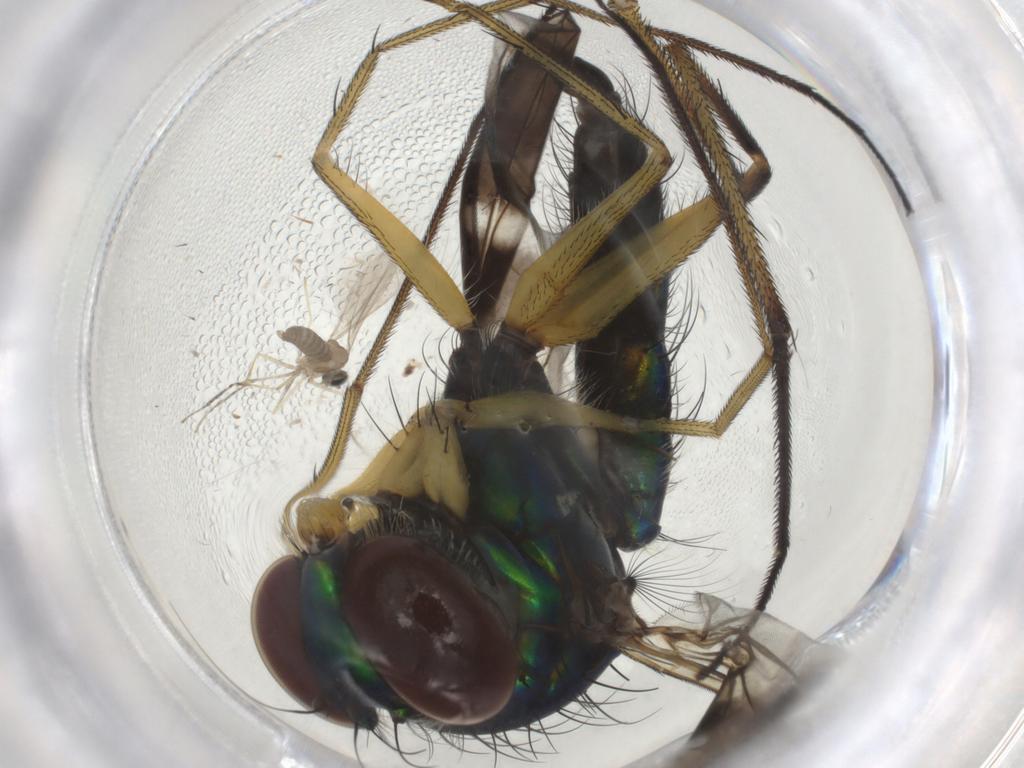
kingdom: Animalia
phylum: Arthropoda
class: Insecta
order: Diptera
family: Dolichopodidae
